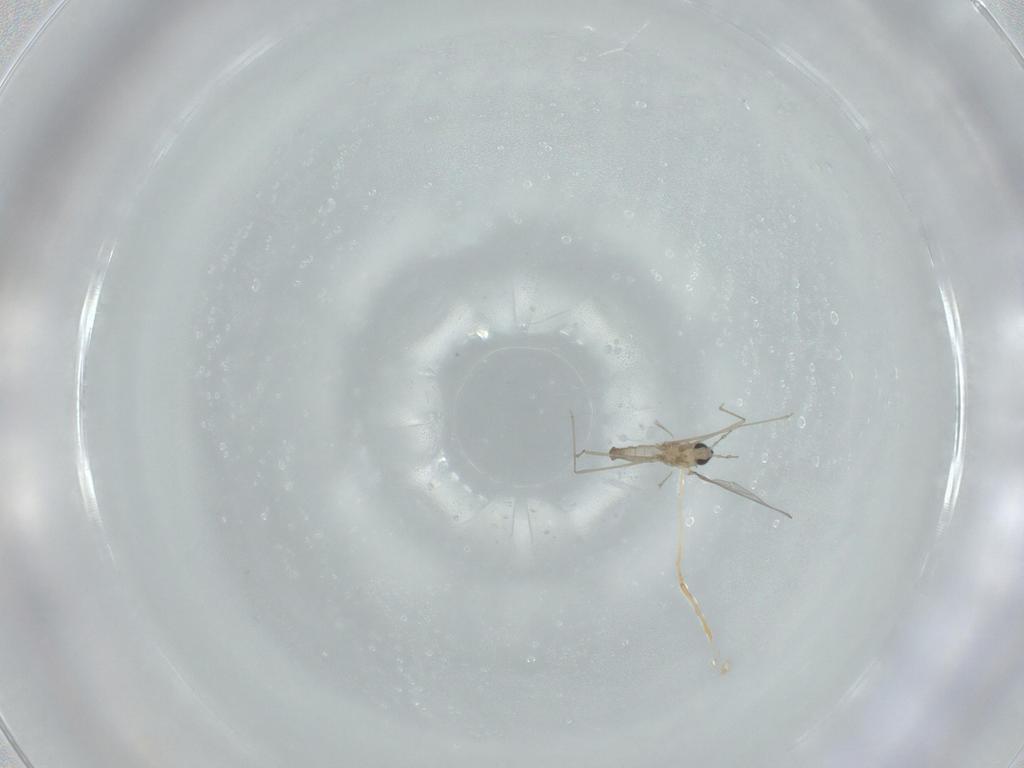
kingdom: Animalia
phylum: Arthropoda
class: Insecta
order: Diptera
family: Cecidomyiidae
